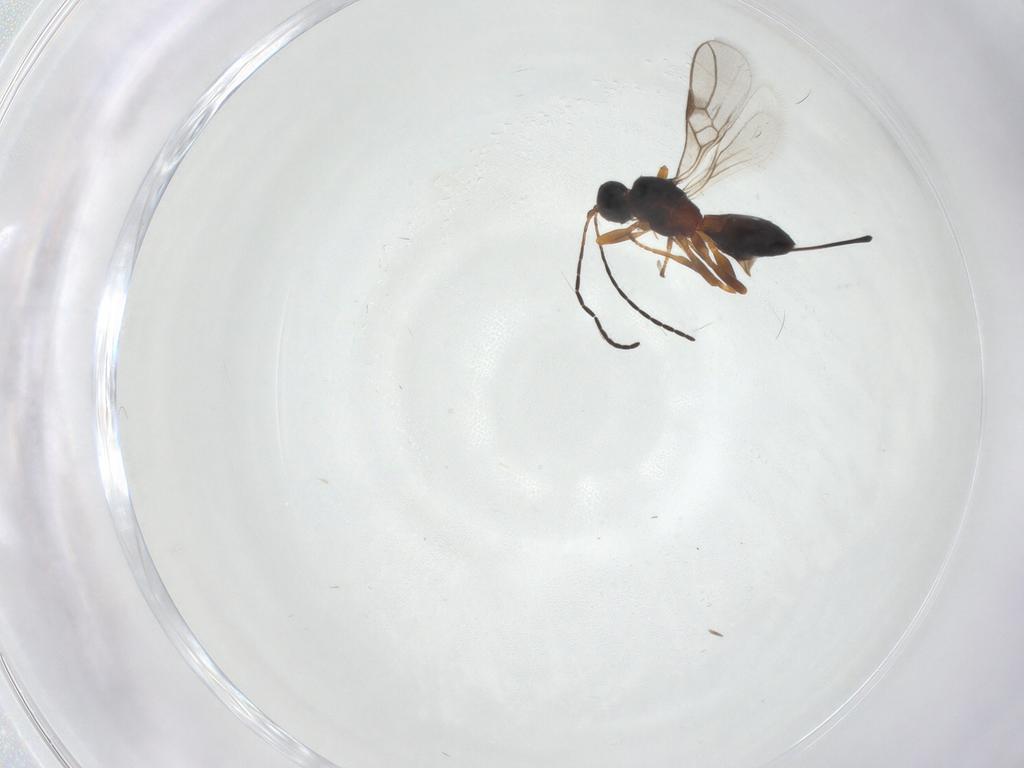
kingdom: Animalia
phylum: Arthropoda
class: Insecta
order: Hymenoptera
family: Braconidae
